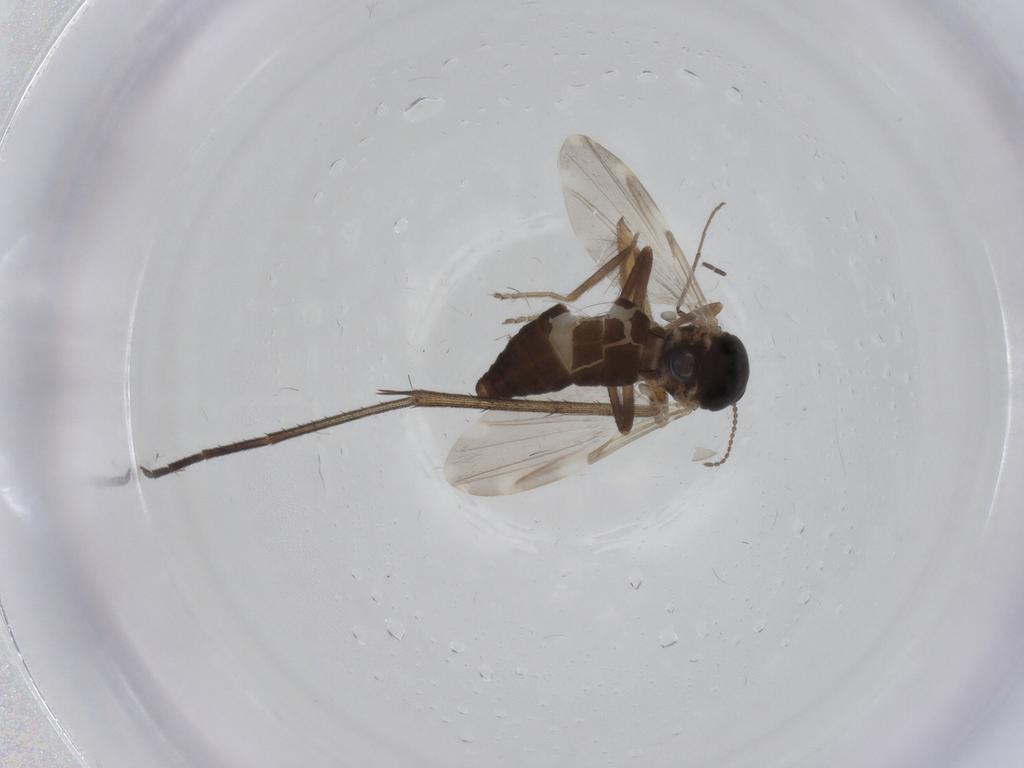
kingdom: Animalia
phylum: Arthropoda
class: Insecta
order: Diptera
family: Ceratopogonidae
